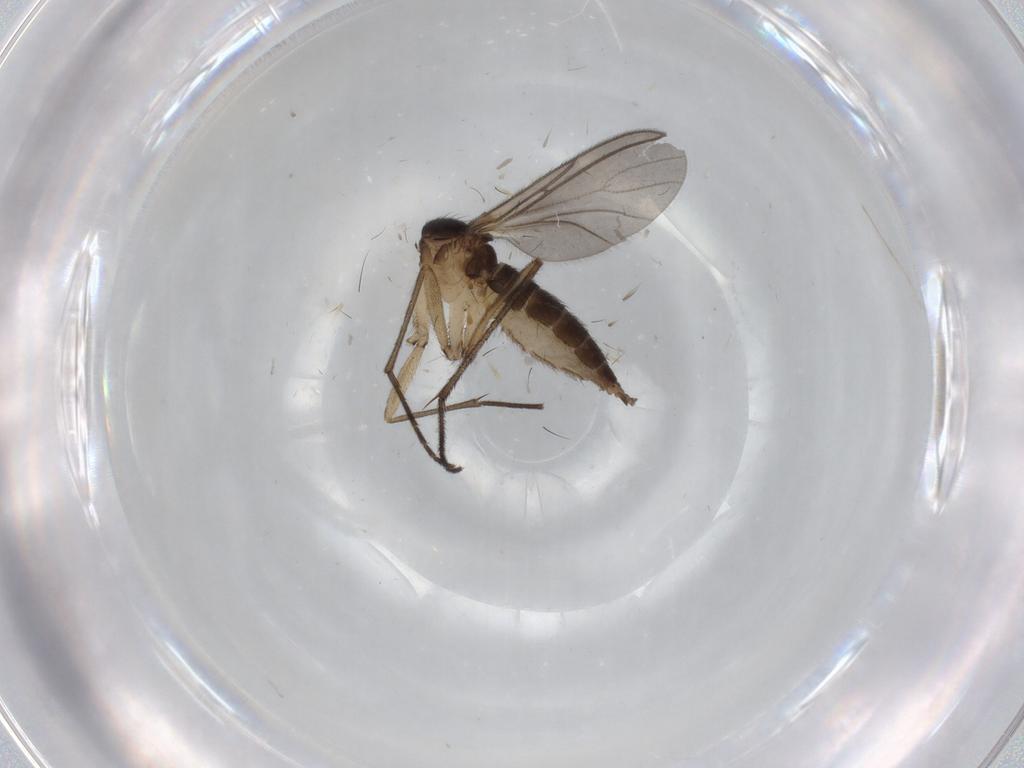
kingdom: Animalia
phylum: Arthropoda
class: Insecta
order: Diptera
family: Sciaridae
